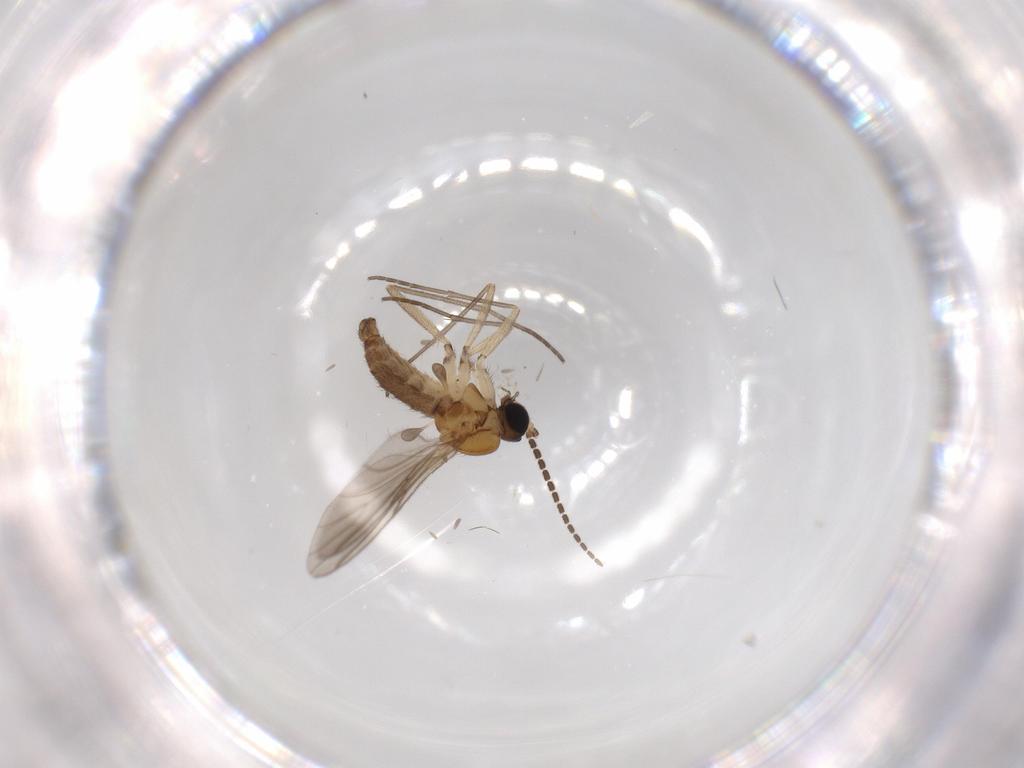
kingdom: Animalia
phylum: Arthropoda
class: Insecta
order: Diptera
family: Sciaridae
